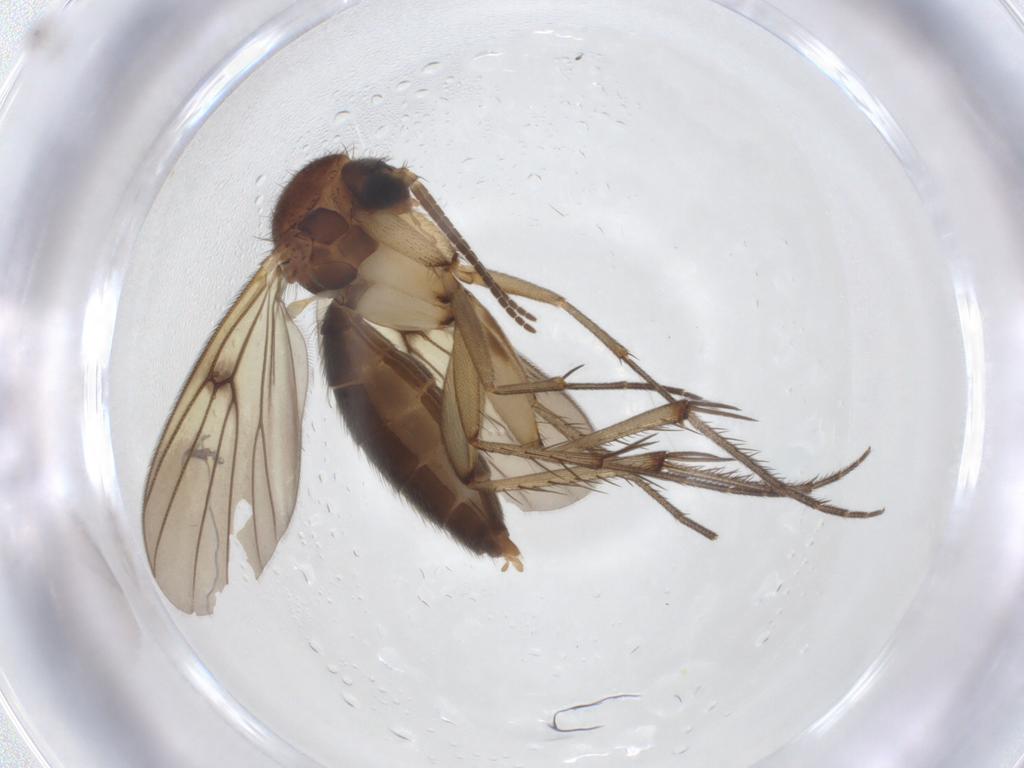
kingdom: Animalia
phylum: Arthropoda
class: Insecta
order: Diptera
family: Mycetophilidae
